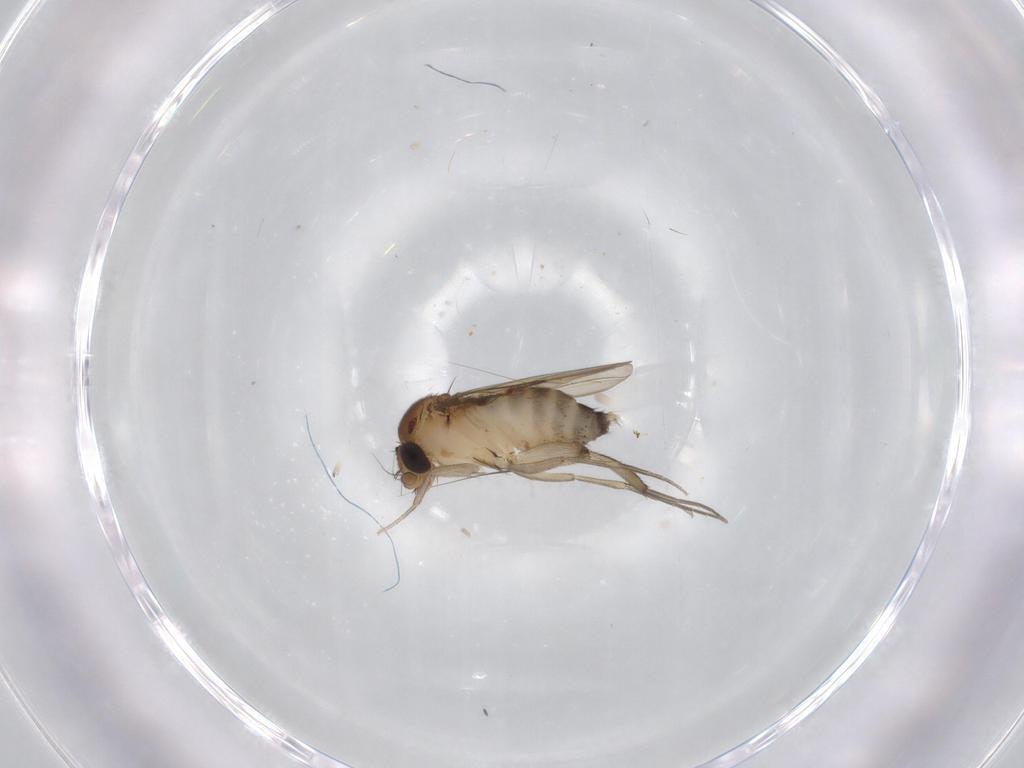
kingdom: Animalia
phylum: Arthropoda
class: Insecta
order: Diptera
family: Phoridae
